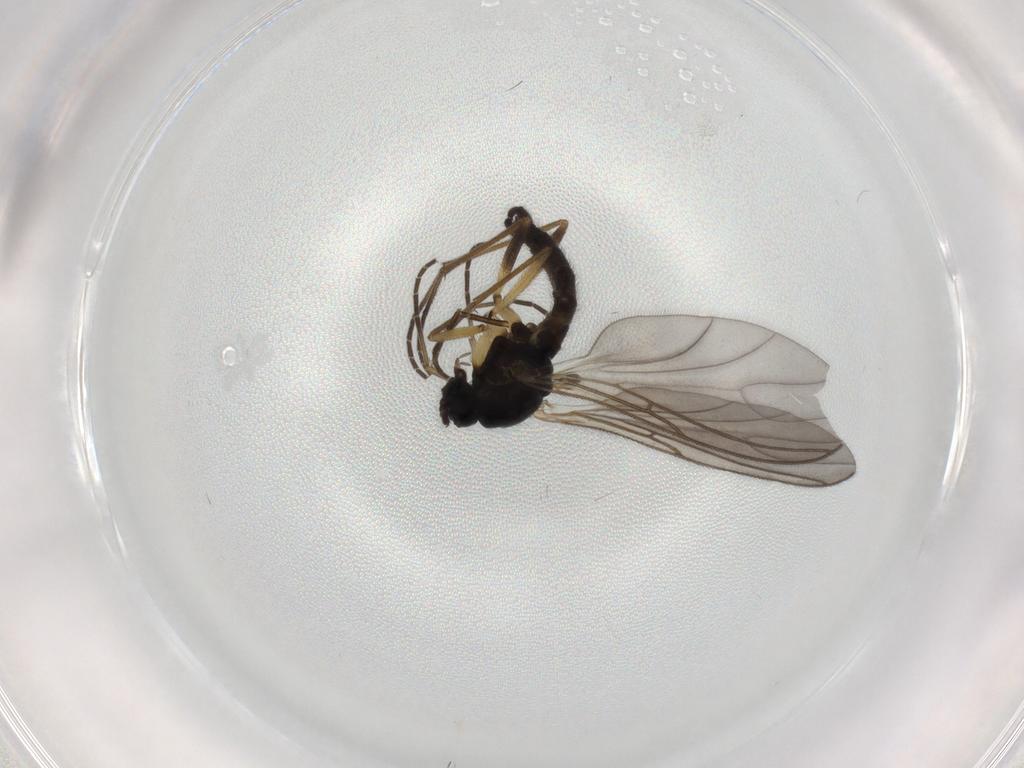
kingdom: Animalia
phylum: Arthropoda
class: Insecta
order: Diptera
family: Sciaridae
